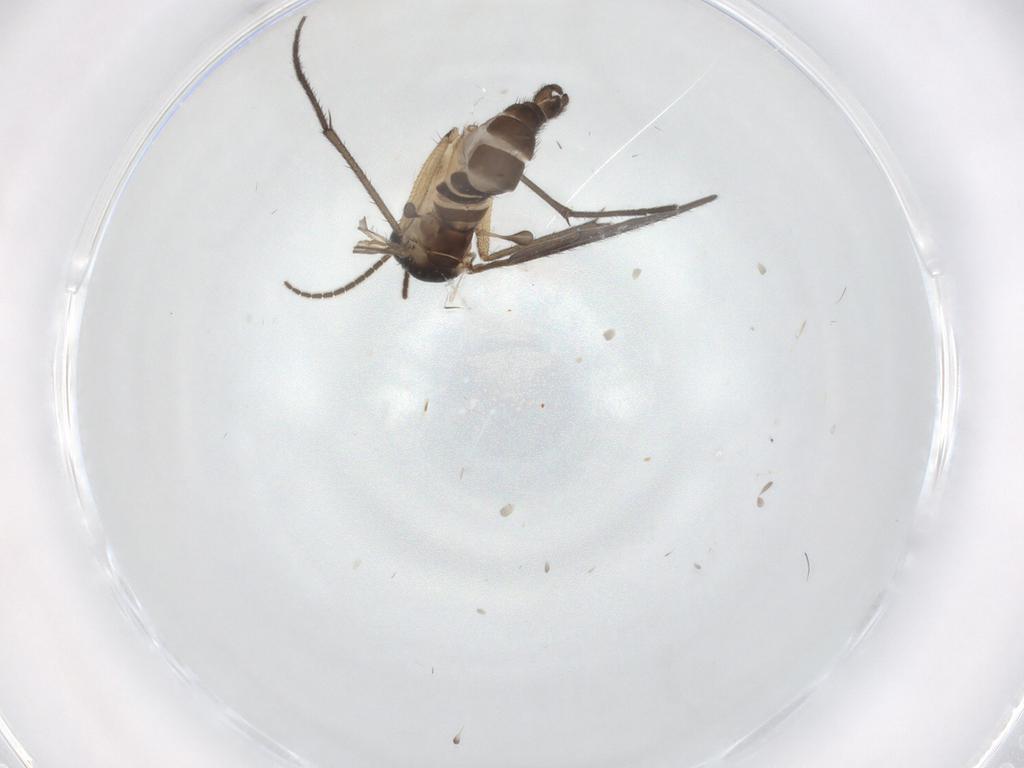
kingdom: Animalia
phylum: Arthropoda
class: Insecta
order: Diptera
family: Sciaridae
